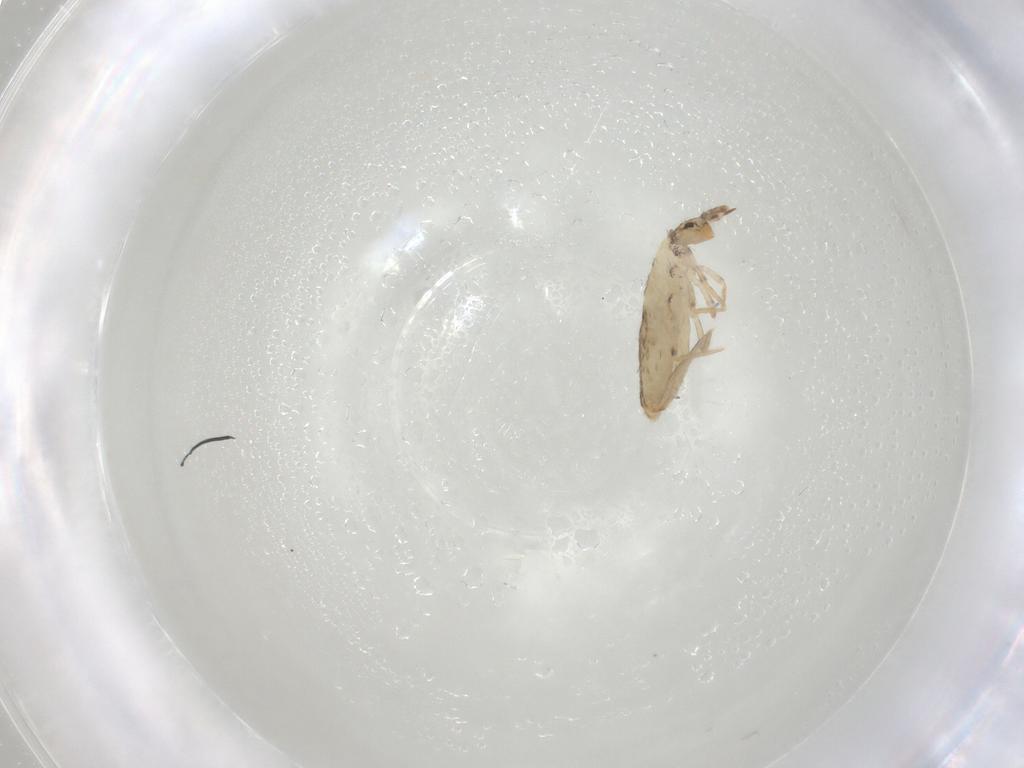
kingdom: Animalia
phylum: Arthropoda
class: Collembola
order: Entomobryomorpha
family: Entomobryidae
